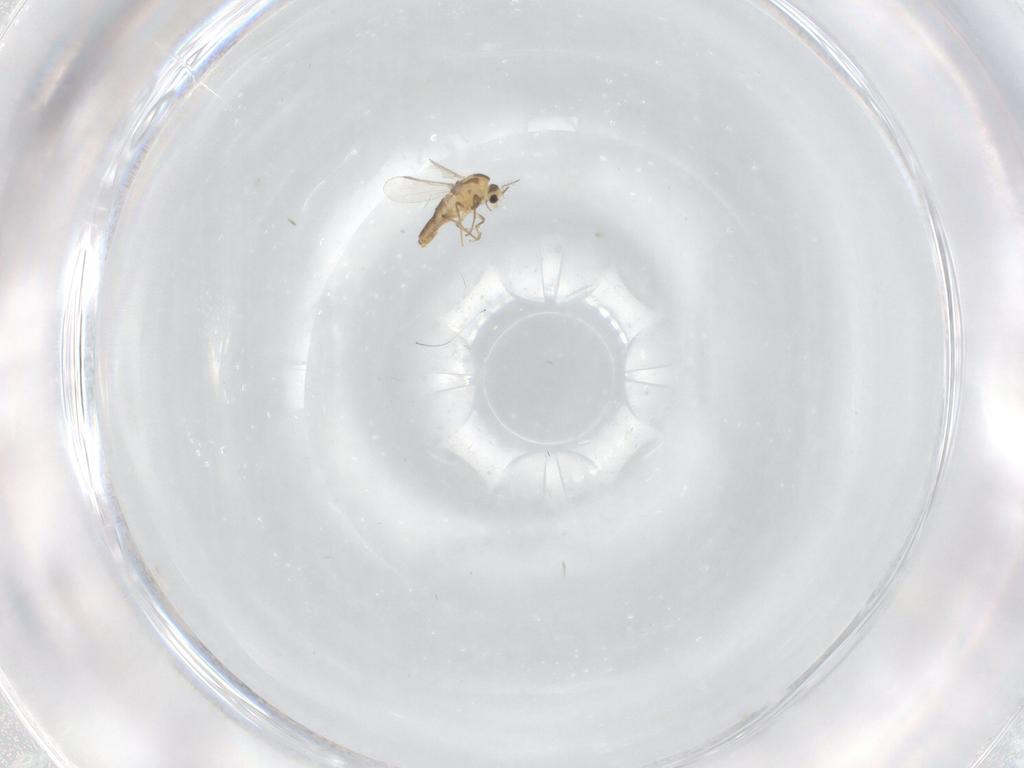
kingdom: Animalia
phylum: Arthropoda
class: Insecta
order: Diptera
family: Chironomidae
